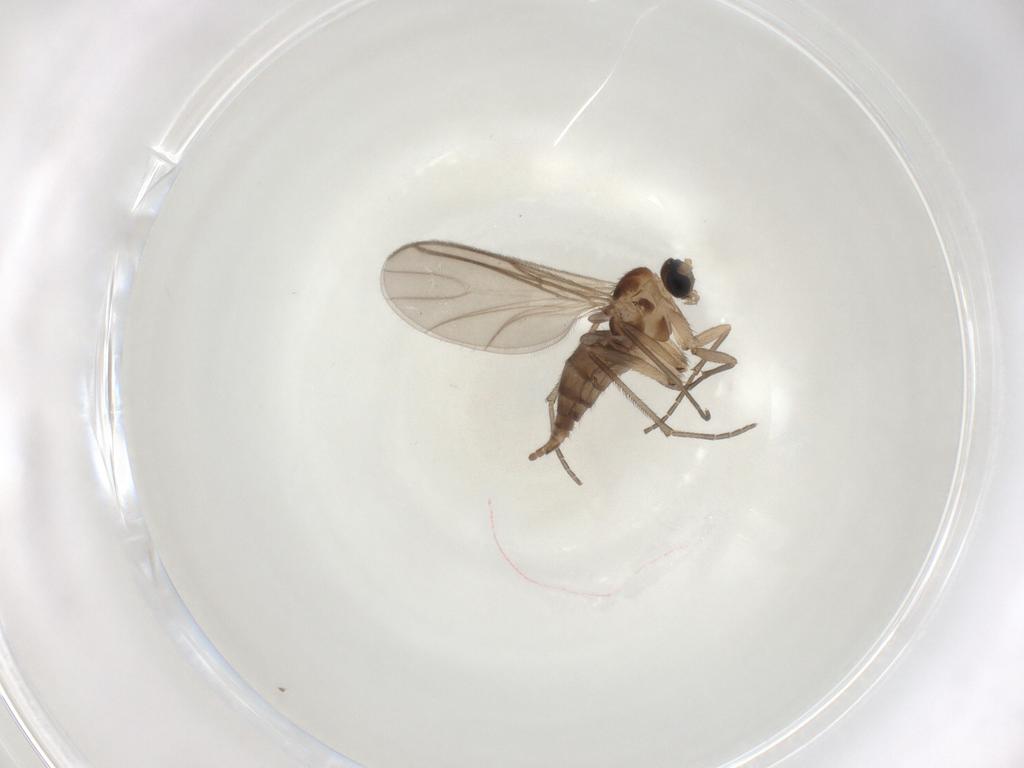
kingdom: Animalia
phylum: Arthropoda
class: Insecta
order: Diptera
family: Sciaridae
